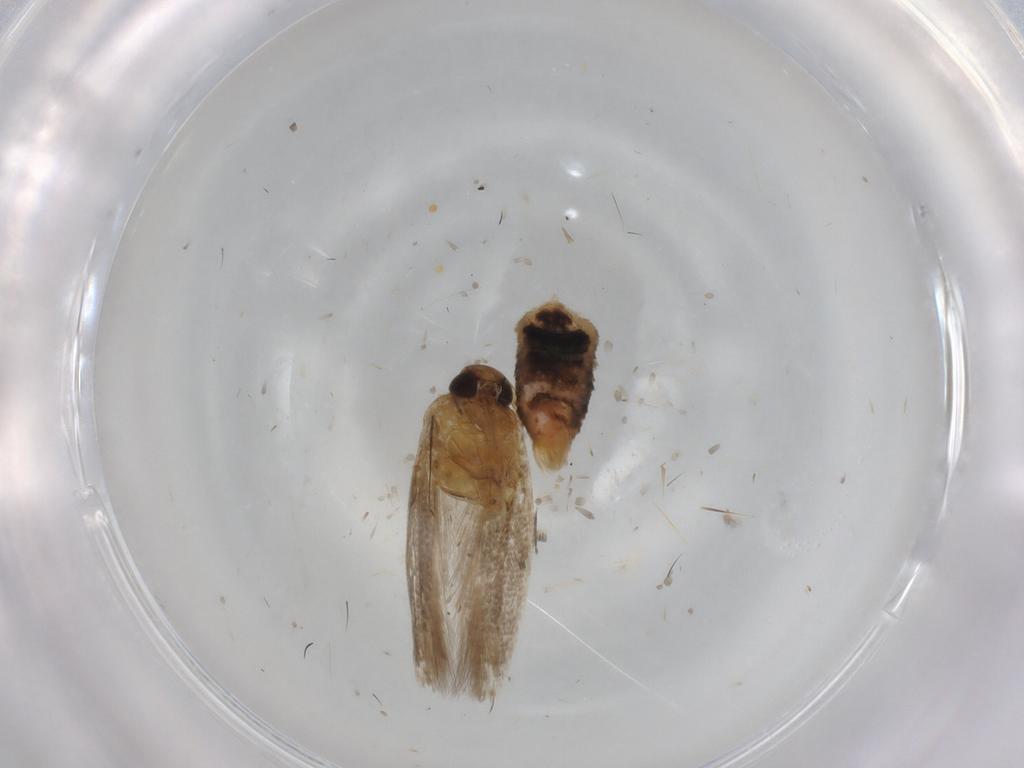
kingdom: Animalia
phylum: Arthropoda
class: Insecta
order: Lepidoptera
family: Cosmopterigidae
